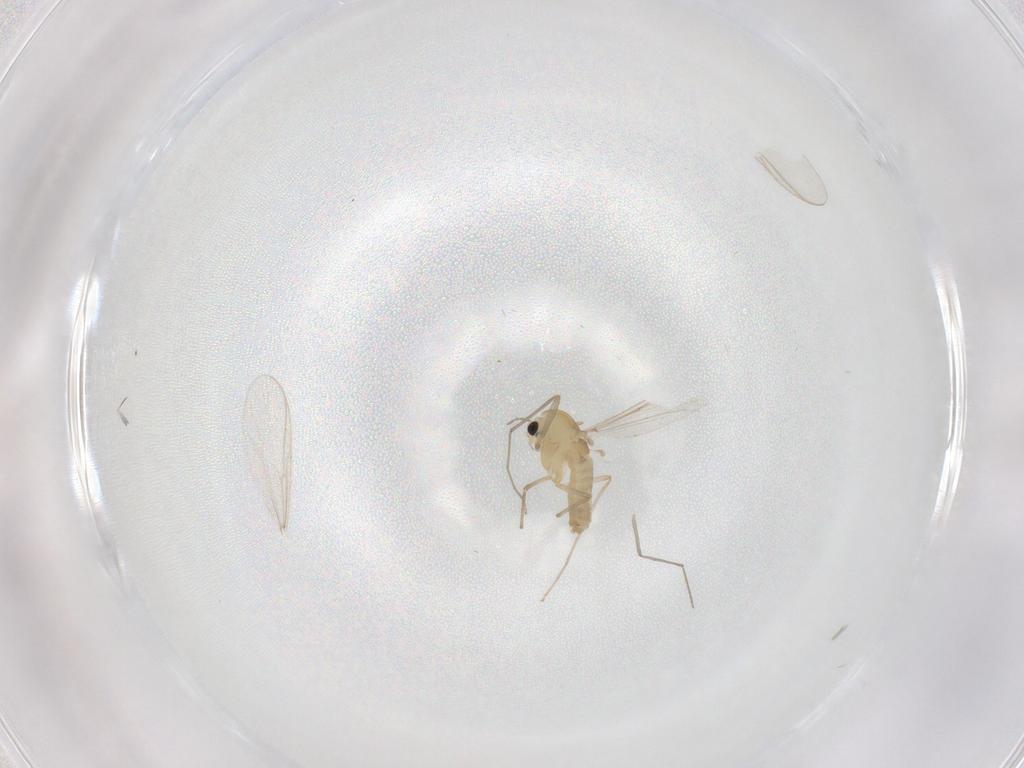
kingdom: Animalia
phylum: Arthropoda
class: Insecta
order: Diptera
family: Chironomidae
